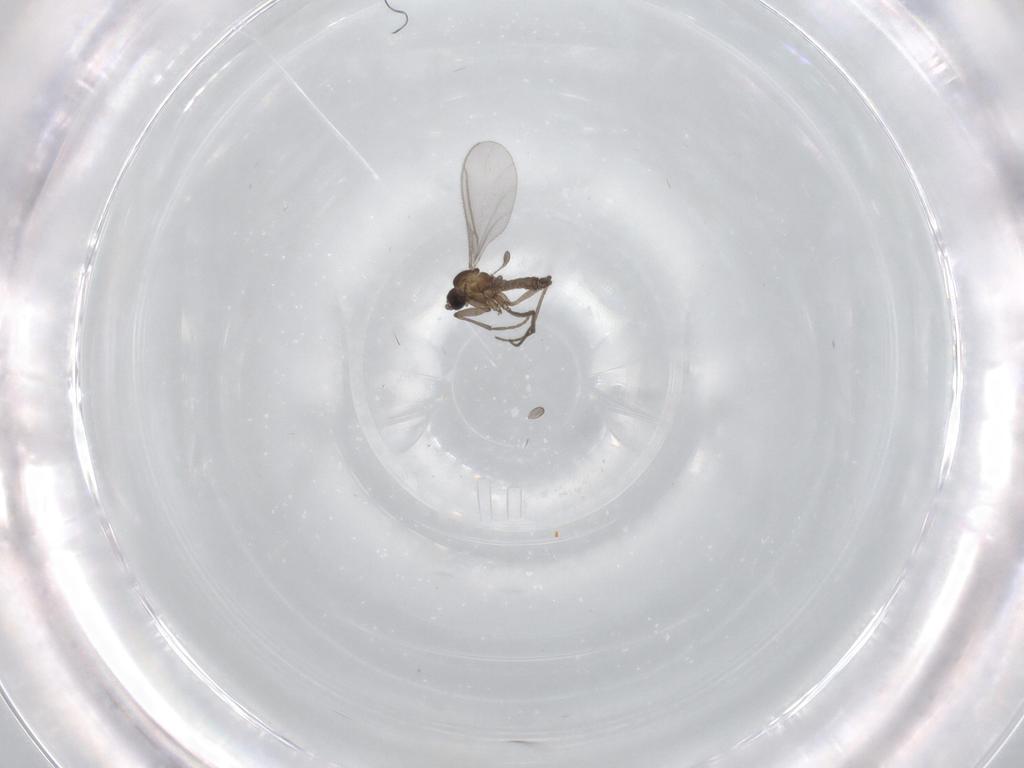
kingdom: Animalia
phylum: Arthropoda
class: Insecta
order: Diptera
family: Sciaridae
